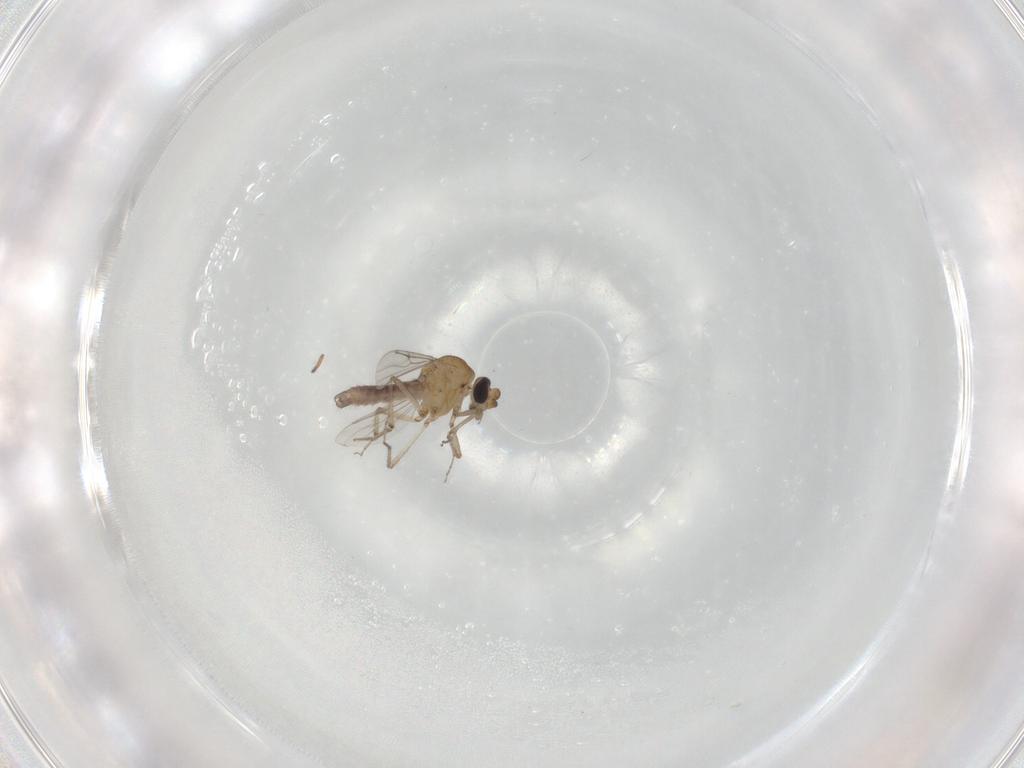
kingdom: Animalia
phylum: Arthropoda
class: Insecta
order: Diptera
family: Ceratopogonidae
